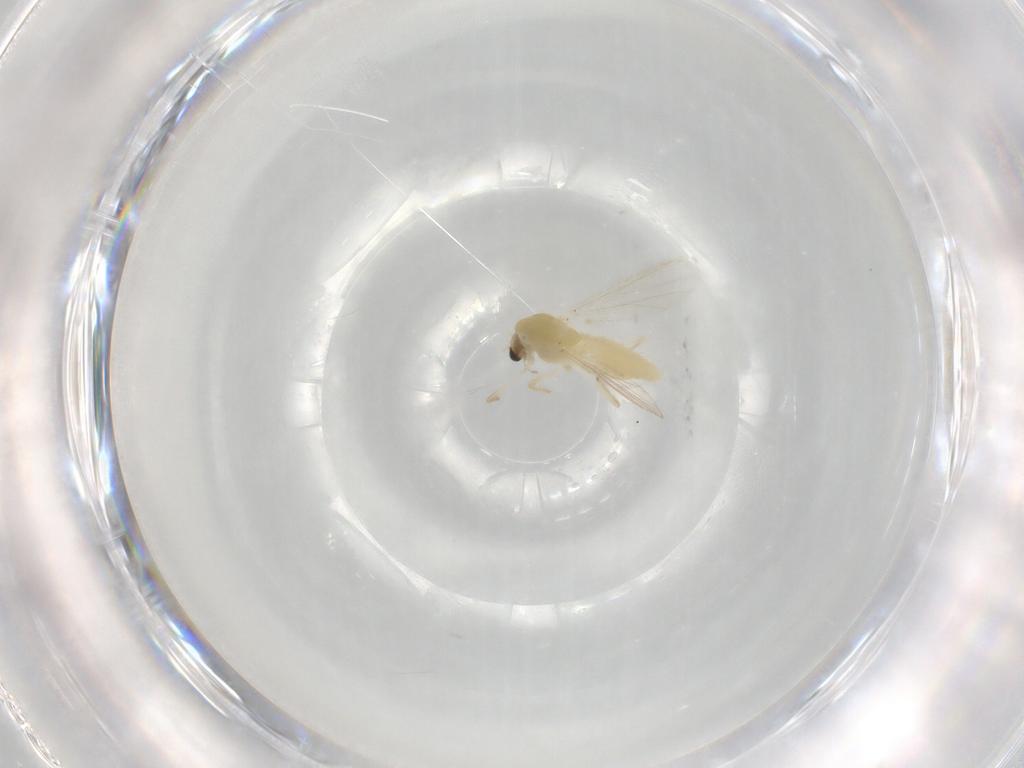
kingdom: Animalia
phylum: Arthropoda
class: Insecta
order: Diptera
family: Chironomidae
